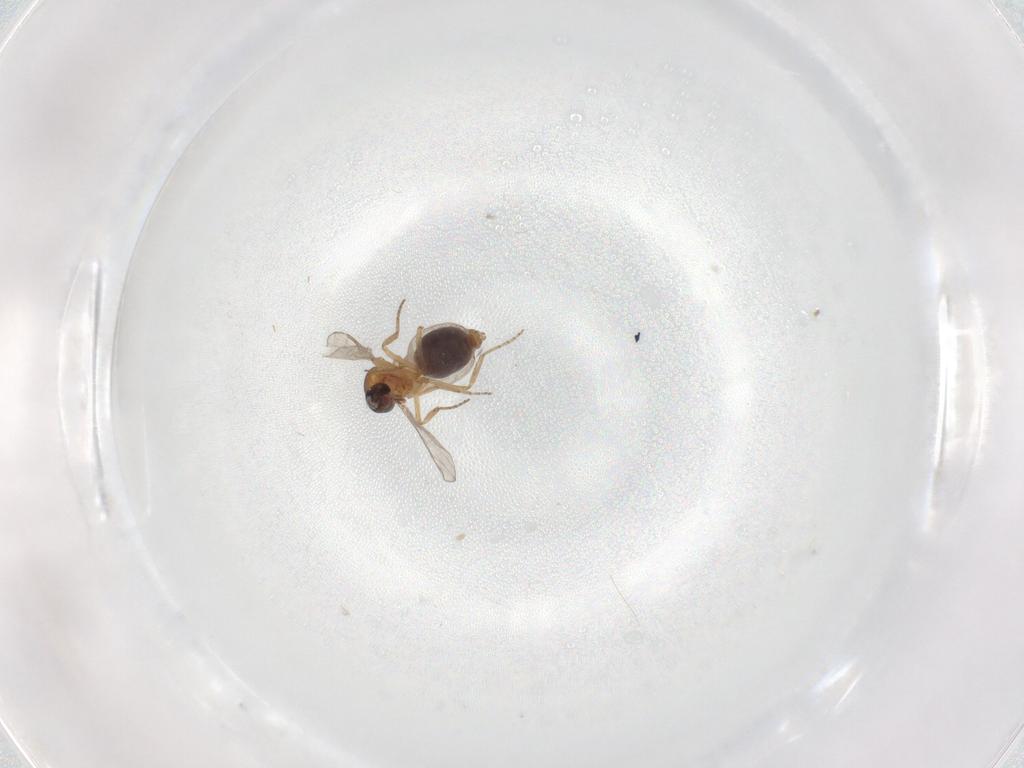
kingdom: Animalia
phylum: Arthropoda
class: Insecta
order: Diptera
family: Chironomidae
